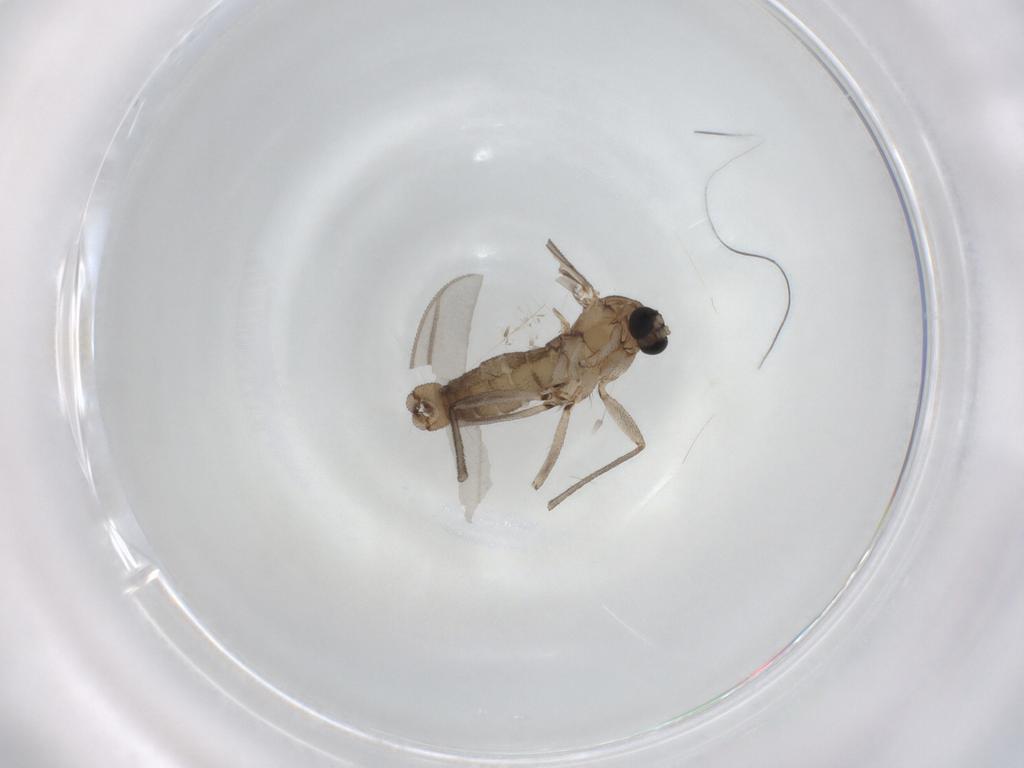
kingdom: Animalia
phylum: Arthropoda
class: Insecta
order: Diptera
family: Sciaridae
